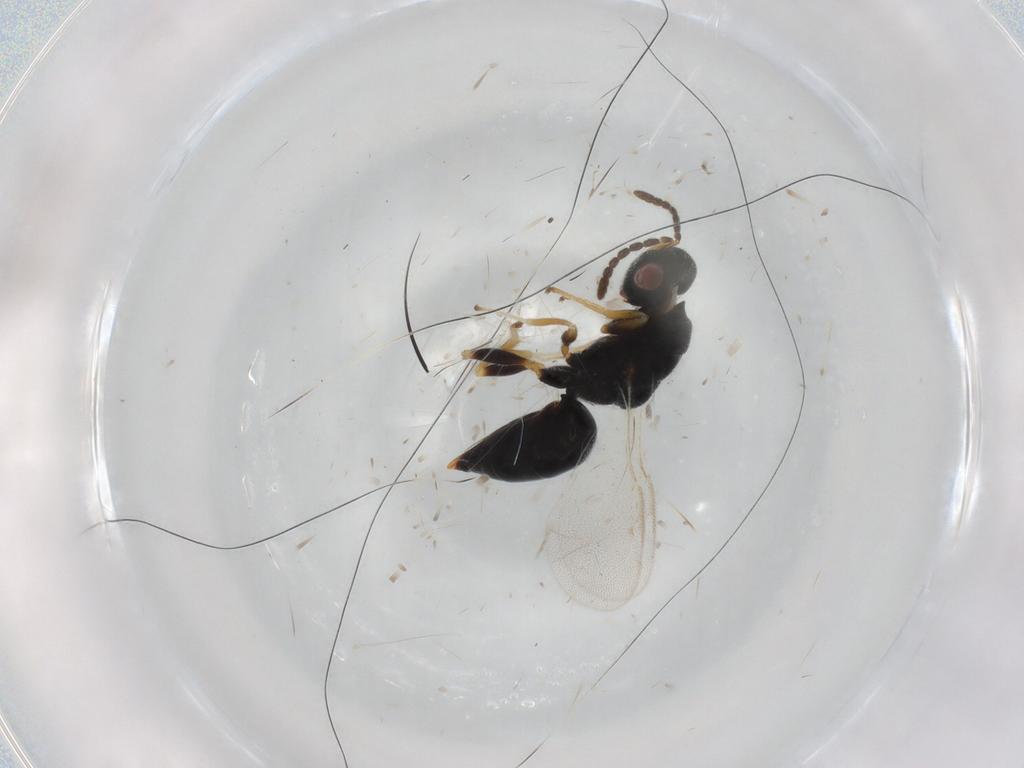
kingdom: Animalia
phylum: Arthropoda
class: Insecta
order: Hymenoptera
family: Eurytomidae
